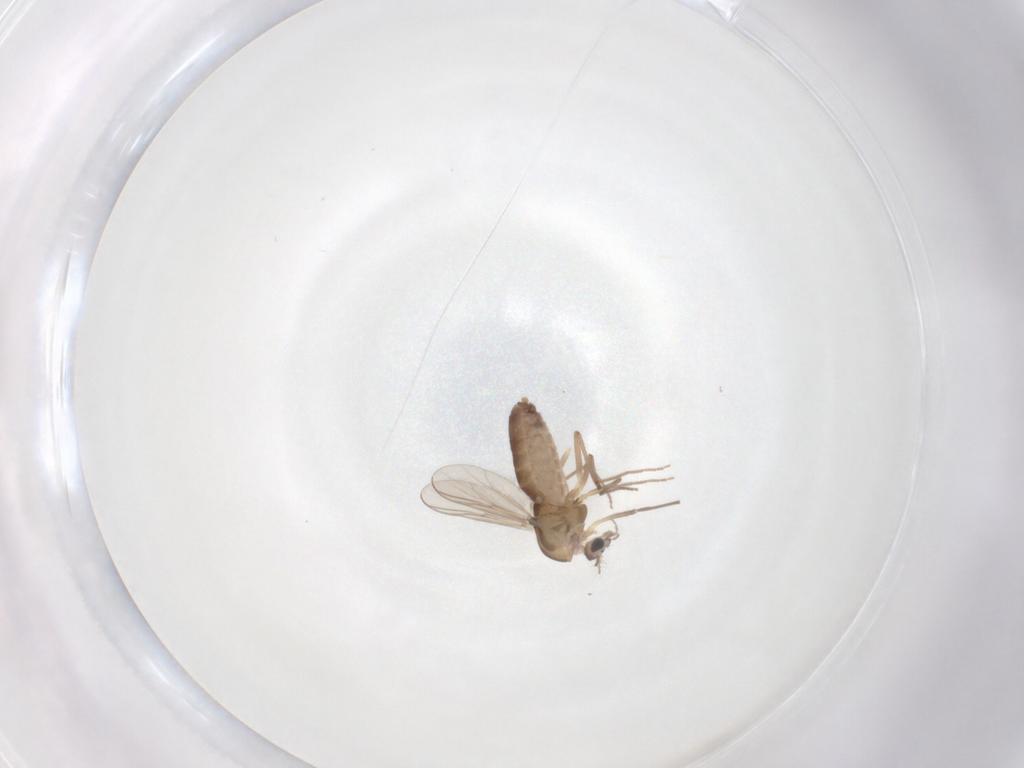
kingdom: Animalia
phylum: Arthropoda
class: Insecta
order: Diptera
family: Chironomidae
